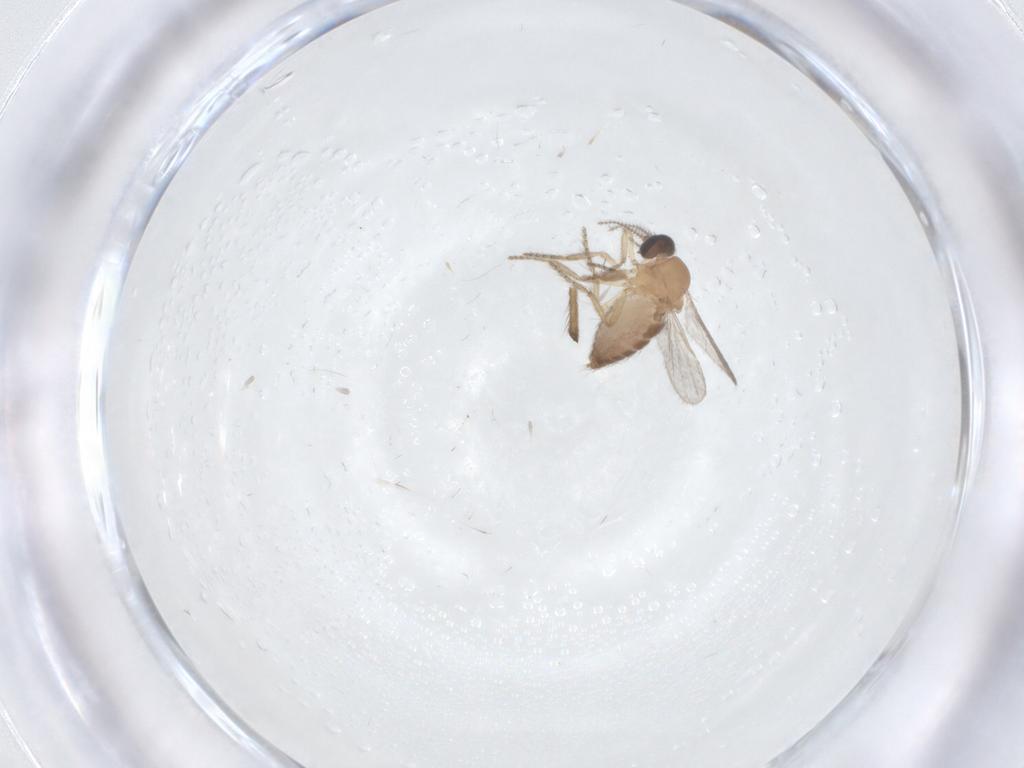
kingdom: Animalia
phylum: Arthropoda
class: Insecta
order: Diptera
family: Ceratopogonidae
